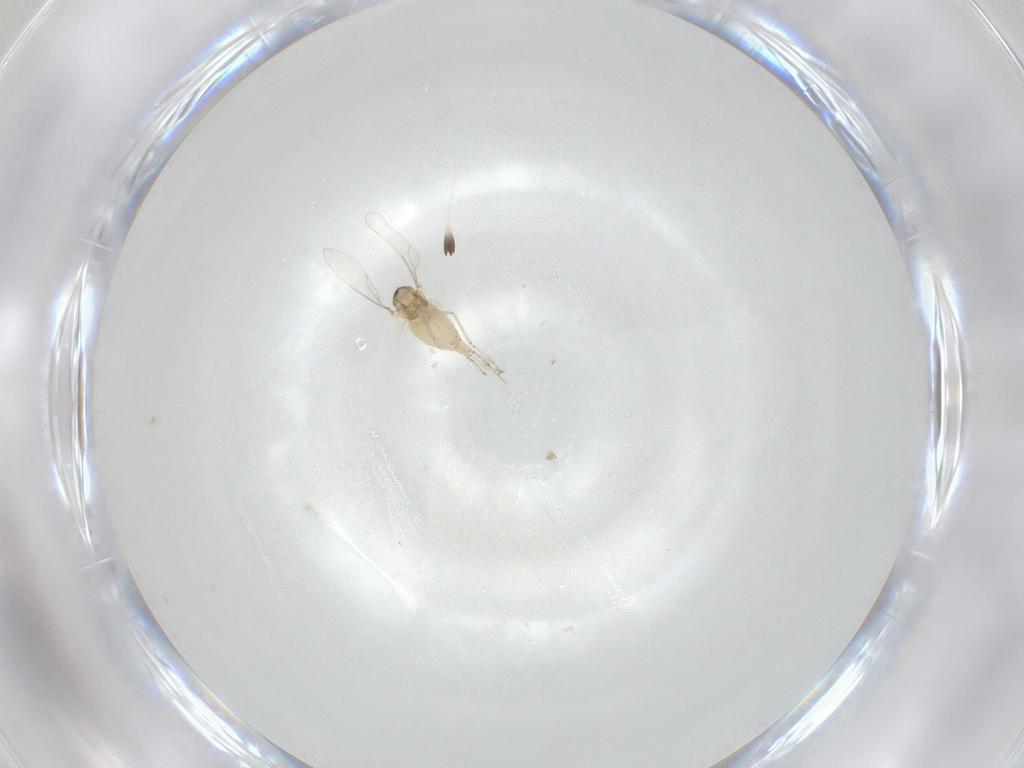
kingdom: Animalia
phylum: Arthropoda
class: Insecta
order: Diptera
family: Cecidomyiidae
